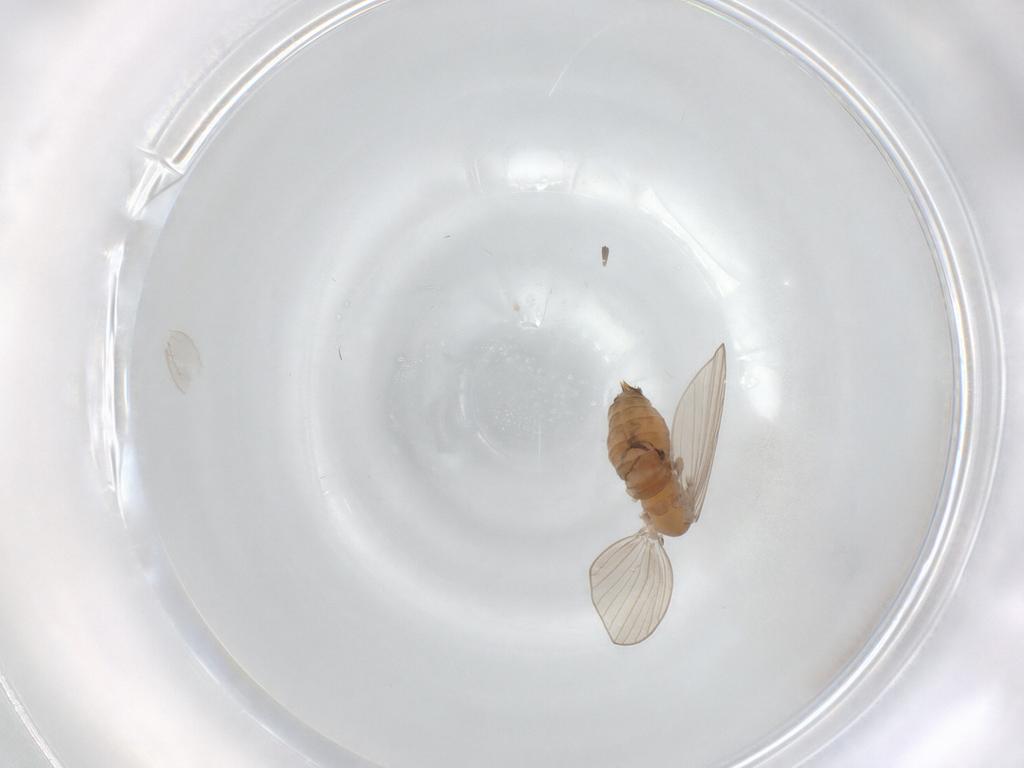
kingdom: Animalia
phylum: Arthropoda
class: Insecta
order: Diptera
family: Psychodidae
